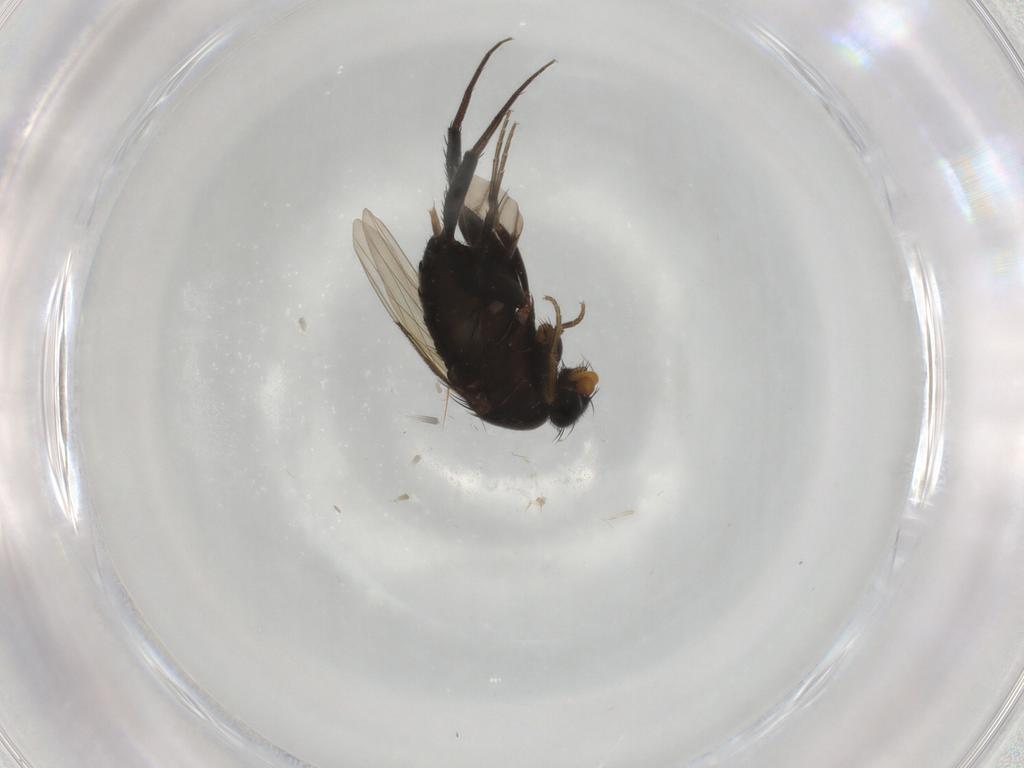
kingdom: Animalia
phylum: Arthropoda
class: Insecta
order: Diptera
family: Phoridae
